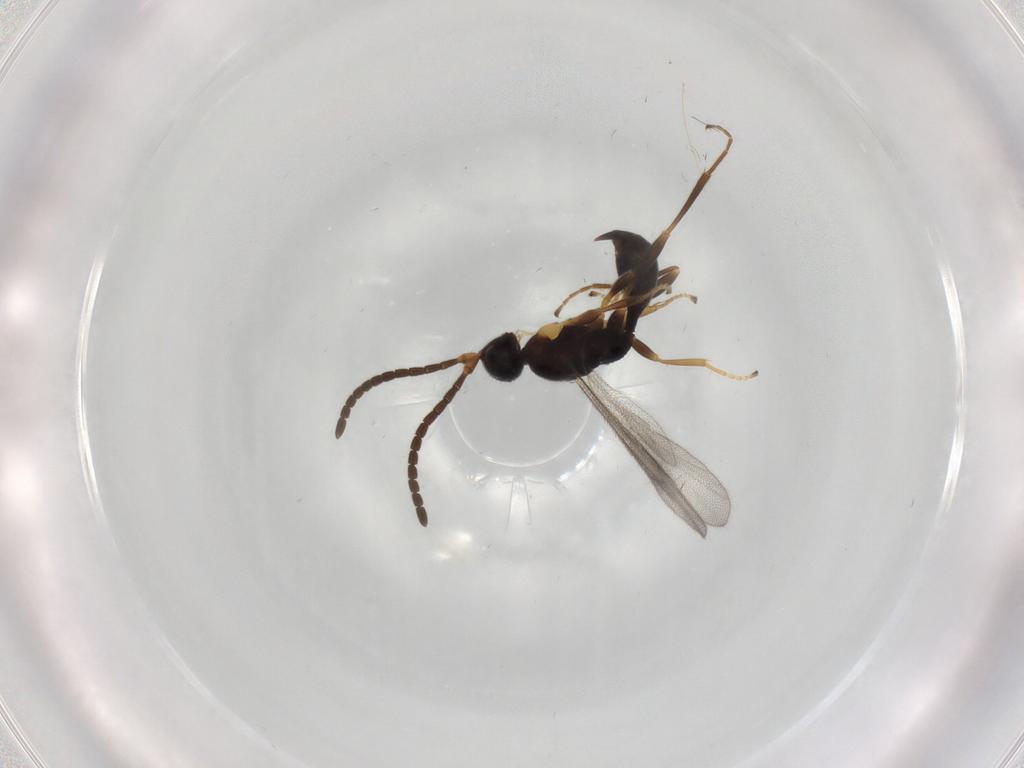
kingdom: Animalia
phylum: Arthropoda
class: Insecta
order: Hymenoptera
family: Proctotrupidae
